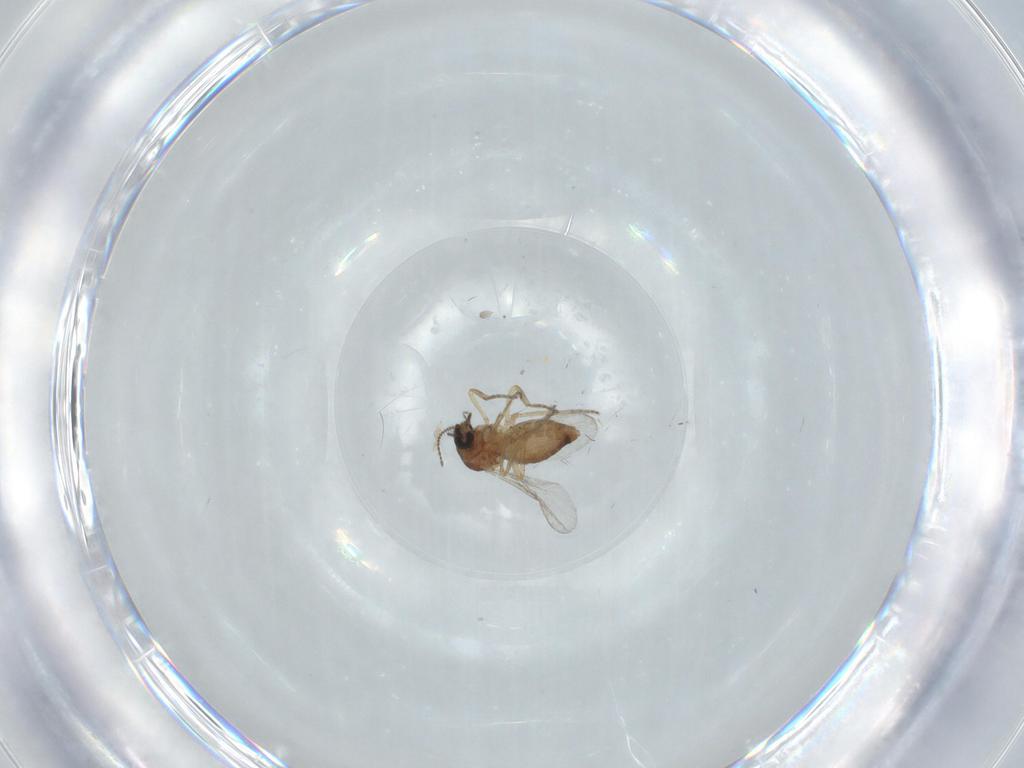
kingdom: Animalia
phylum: Arthropoda
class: Insecta
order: Diptera
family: Ceratopogonidae
